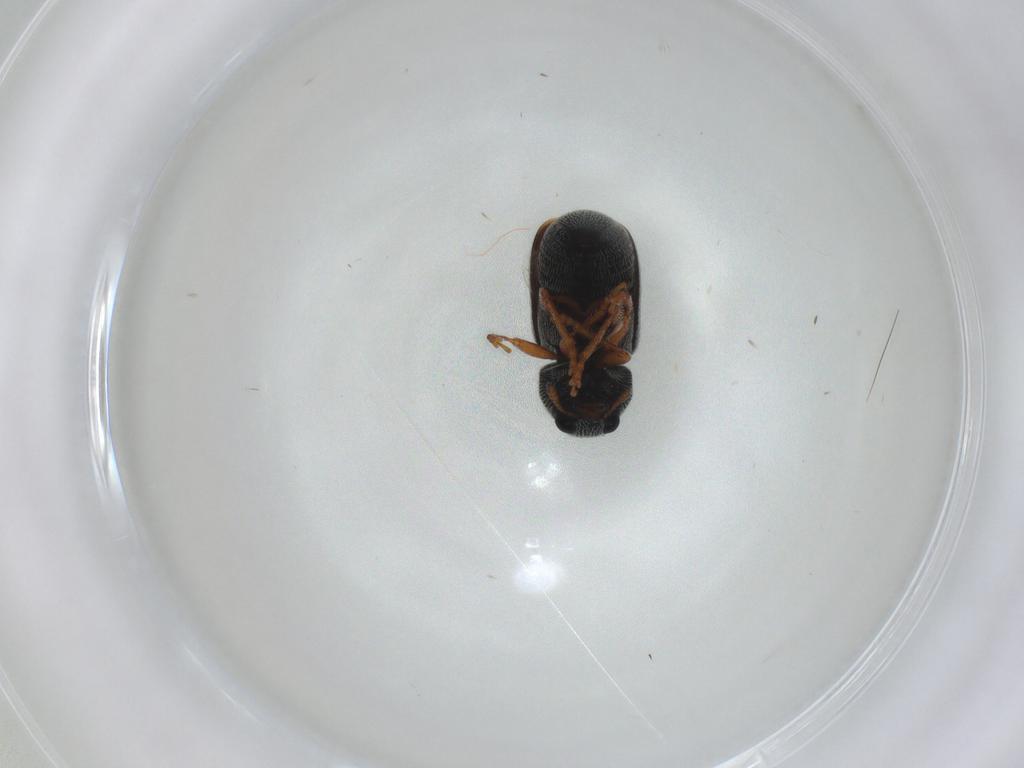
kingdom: Animalia
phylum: Arthropoda
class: Insecta
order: Coleoptera
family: Anthribidae
